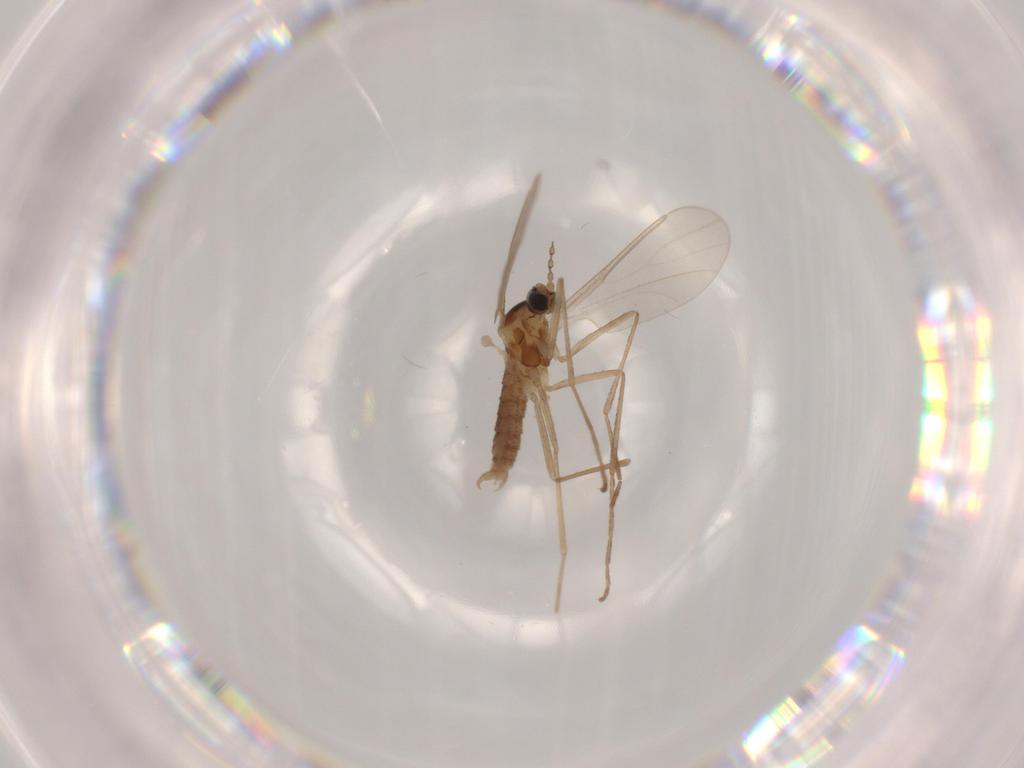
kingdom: Animalia
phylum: Arthropoda
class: Insecta
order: Diptera
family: Sphaeroceridae
